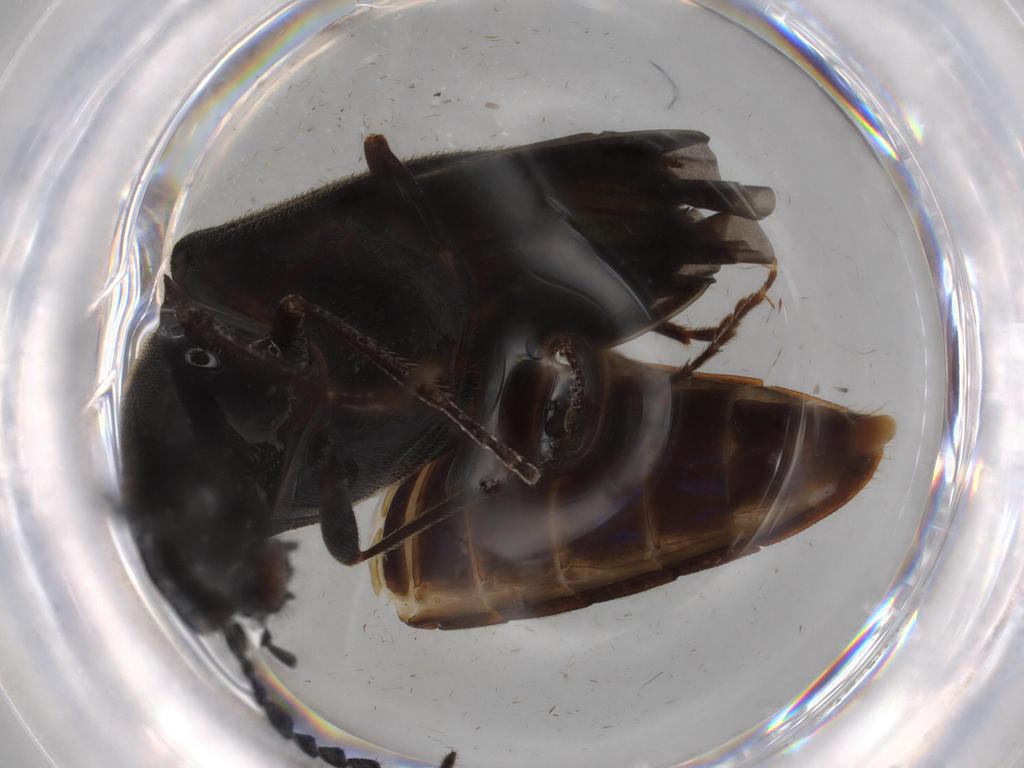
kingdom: Animalia
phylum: Arthropoda
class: Insecta
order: Coleoptera
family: Elateridae
